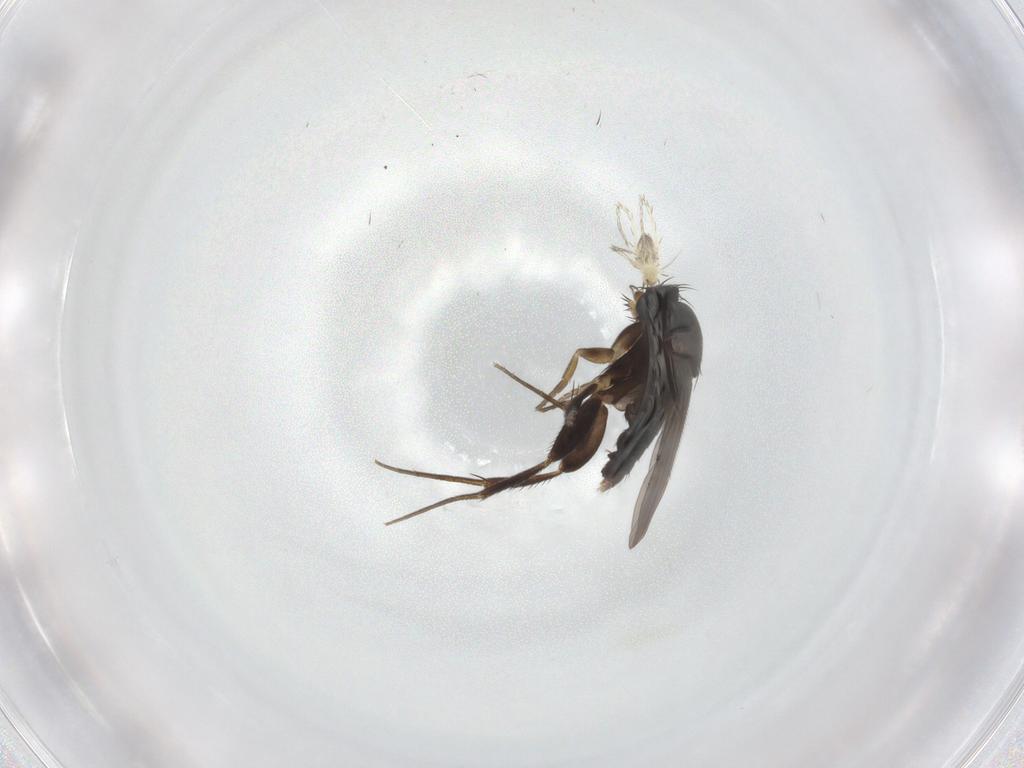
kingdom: Animalia
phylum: Arthropoda
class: Insecta
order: Diptera
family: Phoridae
